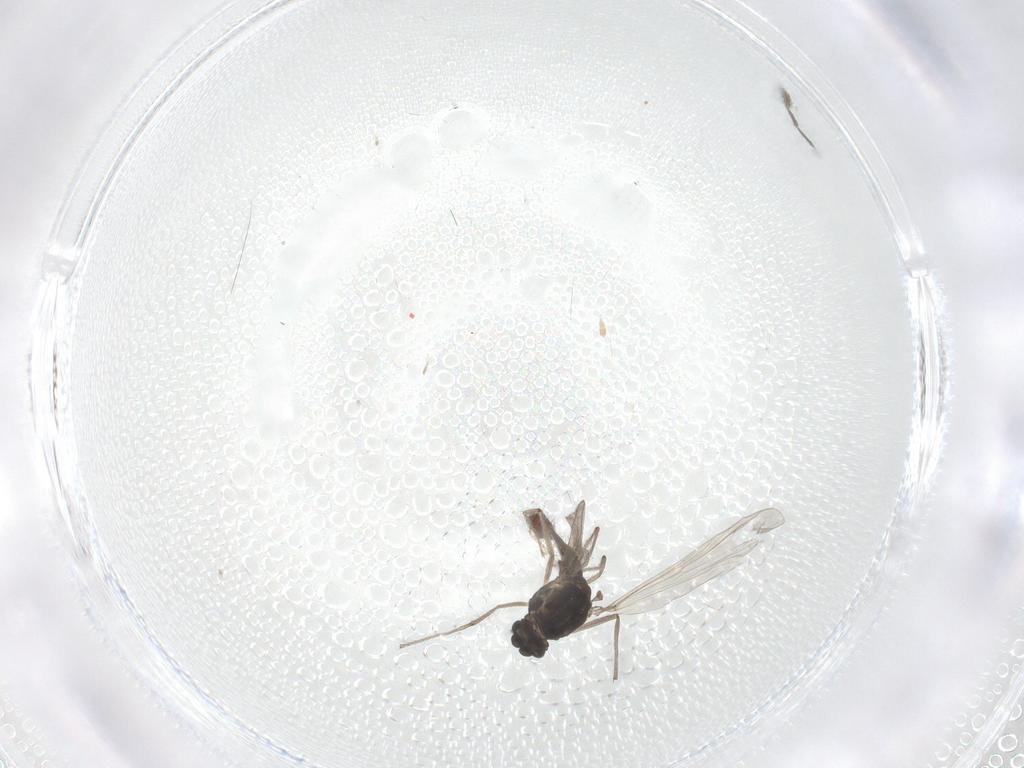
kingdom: Animalia
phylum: Arthropoda
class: Insecta
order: Diptera
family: Chironomidae
